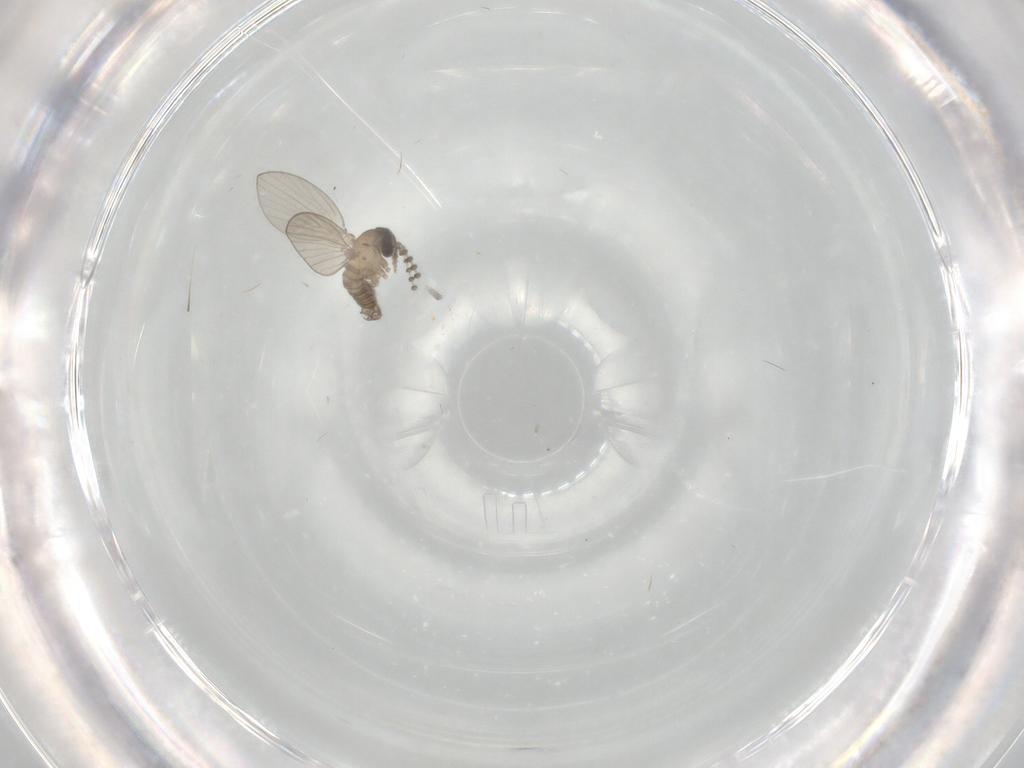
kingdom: Animalia
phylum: Arthropoda
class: Insecta
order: Diptera
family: Psychodidae
